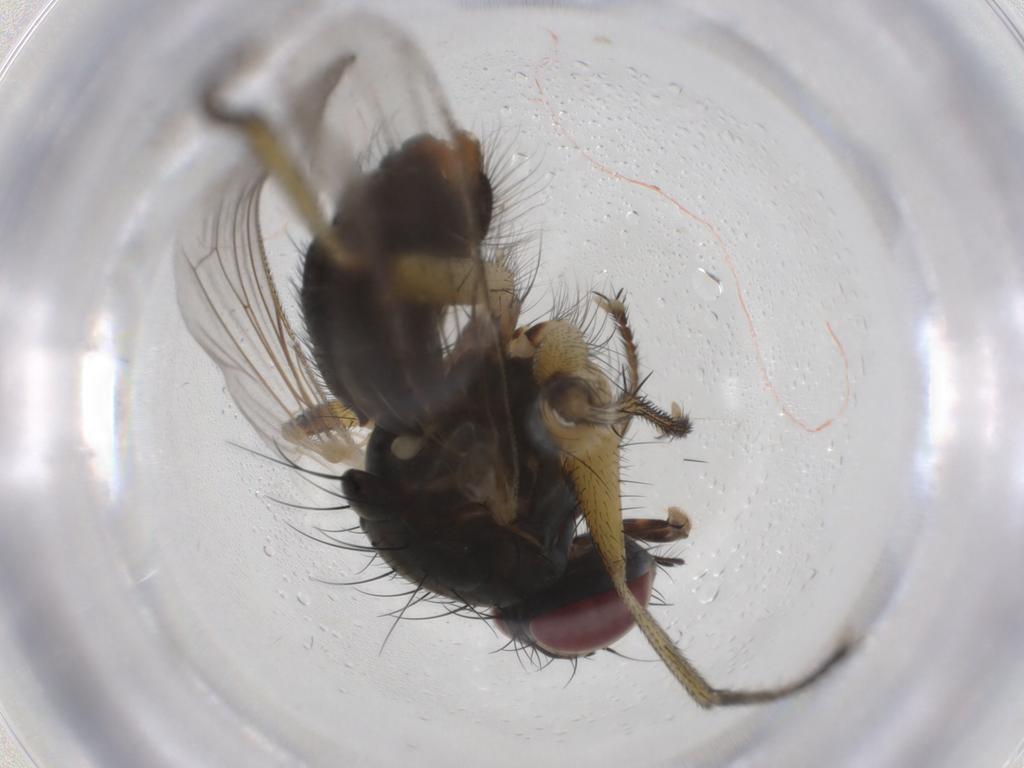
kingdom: Animalia
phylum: Arthropoda
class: Insecta
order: Diptera
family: Muscidae
